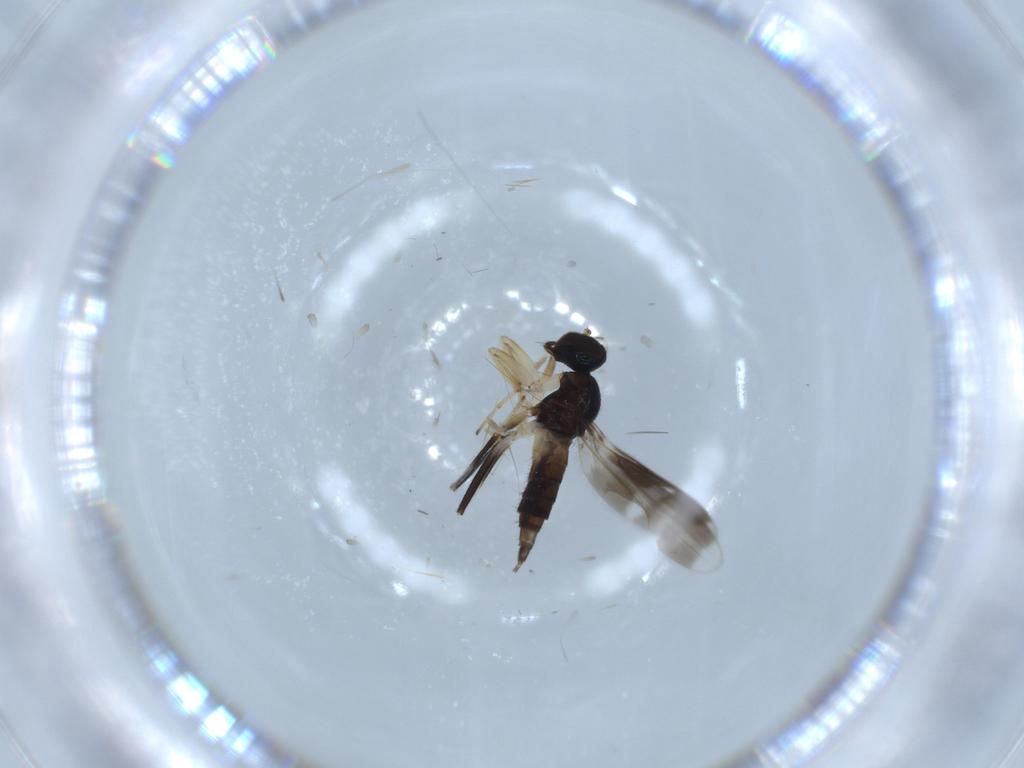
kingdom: Animalia
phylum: Arthropoda
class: Insecta
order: Diptera
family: Hybotidae
